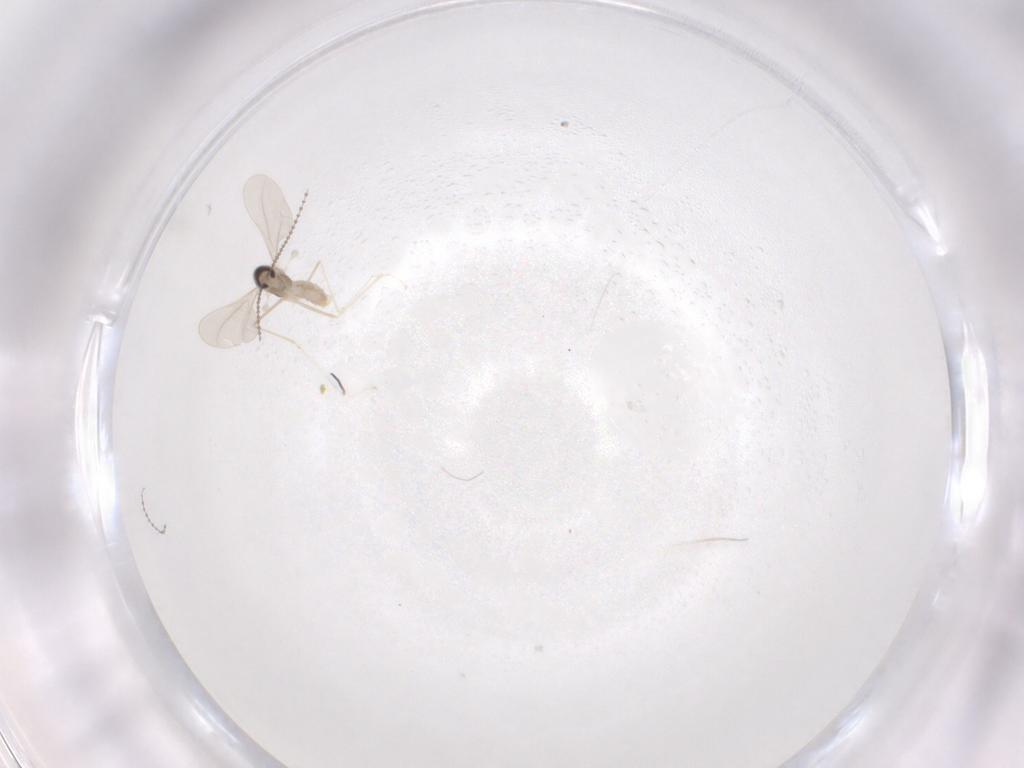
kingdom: Animalia
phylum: Arthropoda
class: Insecta
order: Diptera
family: Cecidomyiidae
